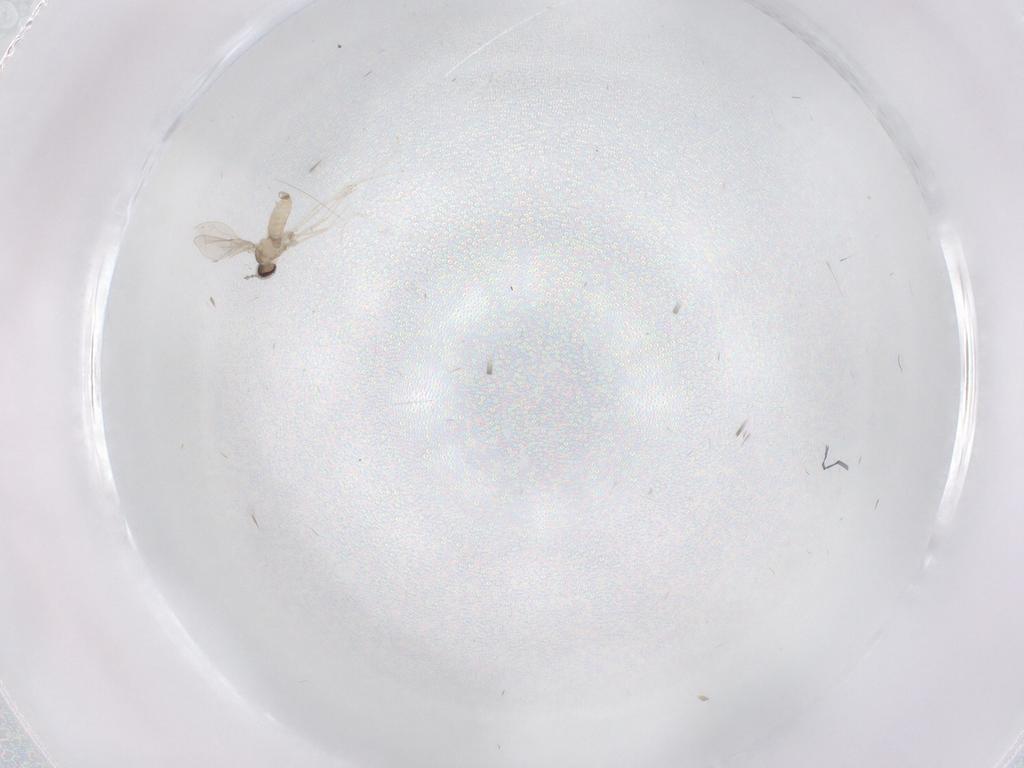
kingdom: Animalia
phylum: Arthropoda
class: Insecta
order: Diptera
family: Cecidomyiidae
